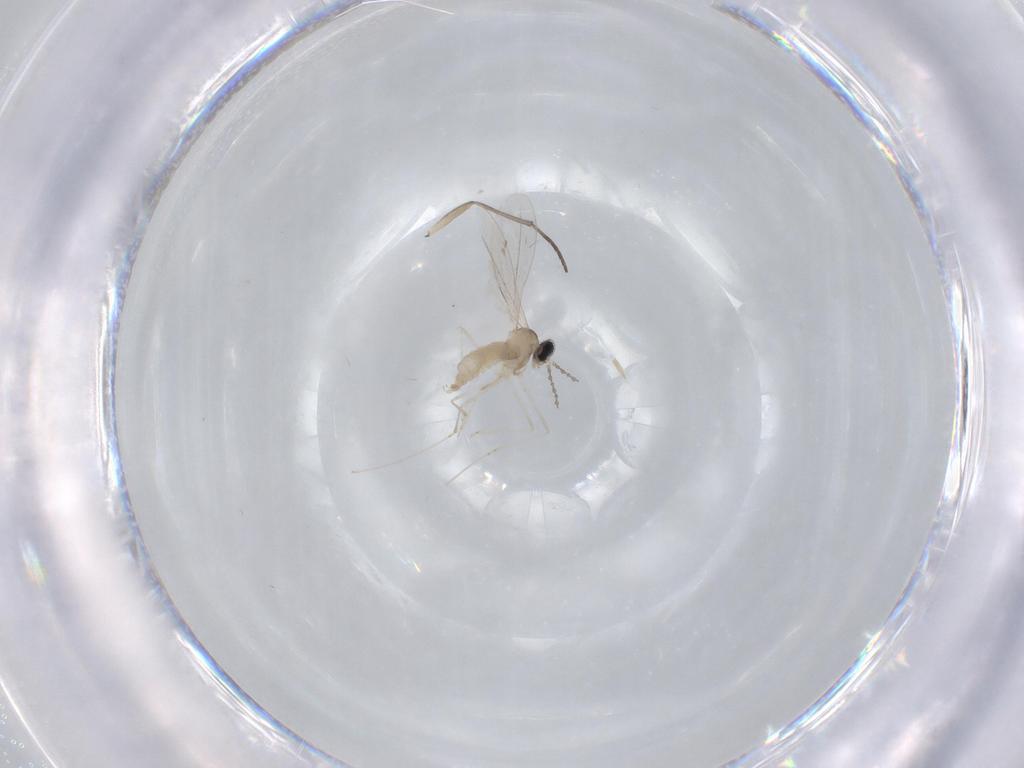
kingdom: Animalia
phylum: Arthropoda
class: Insecta
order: Diptera
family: Cecidomyiidae
